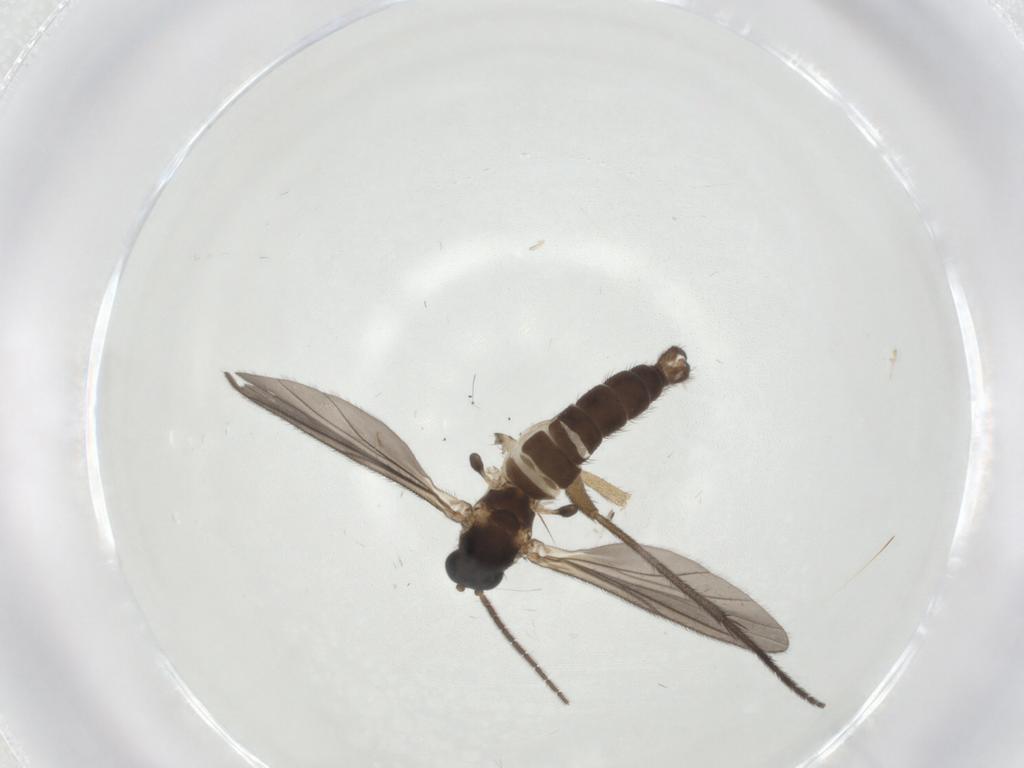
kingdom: Animalia
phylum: Arthropoda
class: Insecta
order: Diptera
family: Sciaridae
